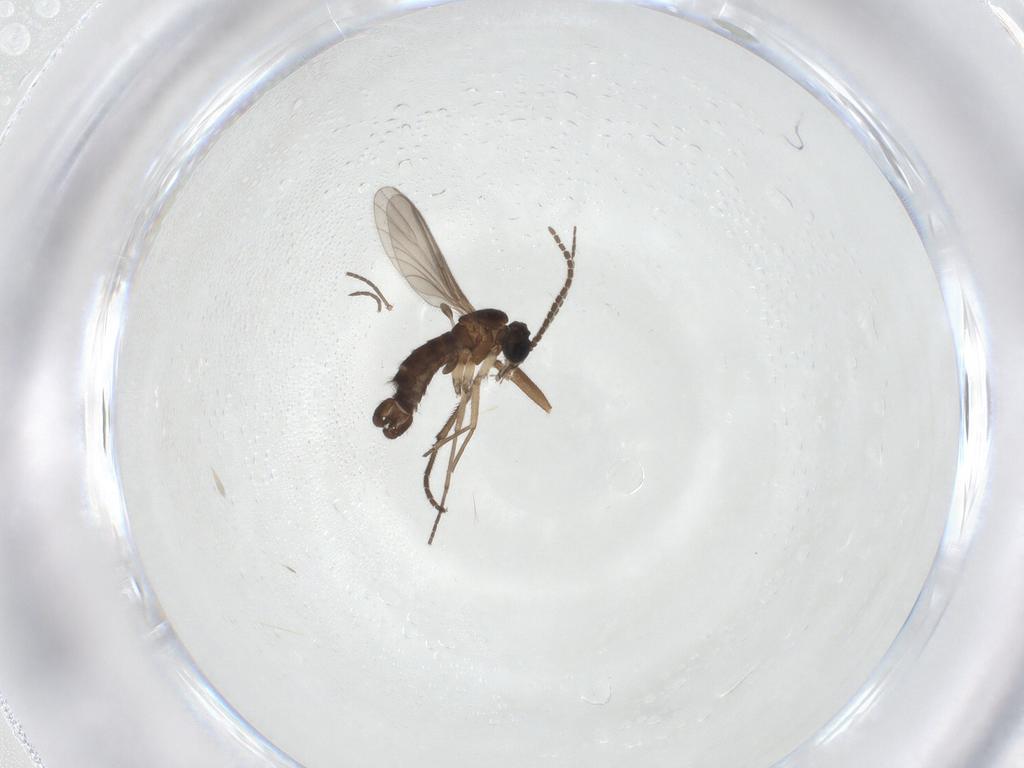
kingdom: Animalia
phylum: Arthropoda
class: Insecta
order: Diptera
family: Sciaridae
